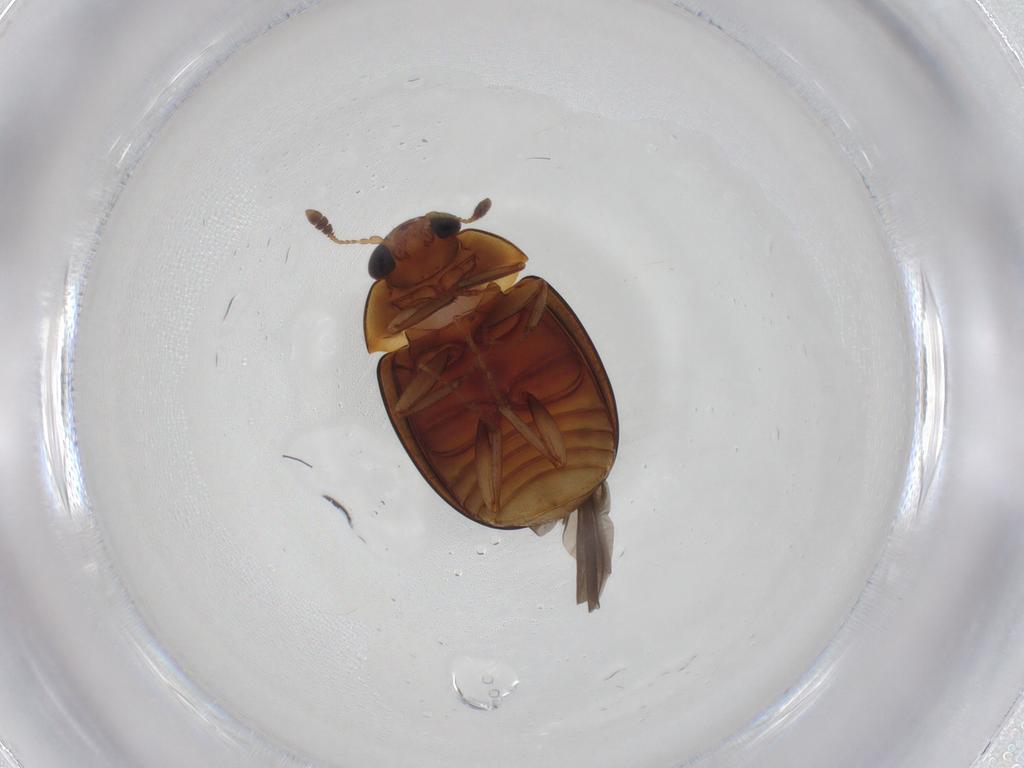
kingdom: Animalia
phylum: Arthropoda
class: Insecta
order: Coleoptera
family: Nitidulidae
